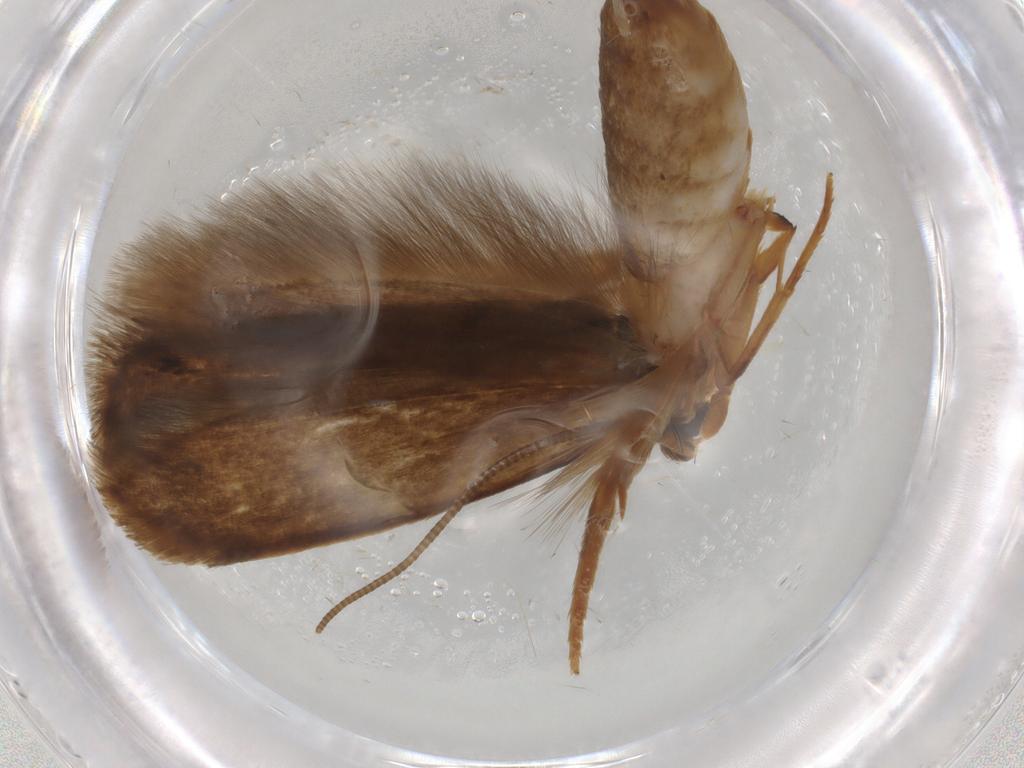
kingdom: Animalia
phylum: Arthropoda
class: Insecta
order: Lepidoptera
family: Tineidae
